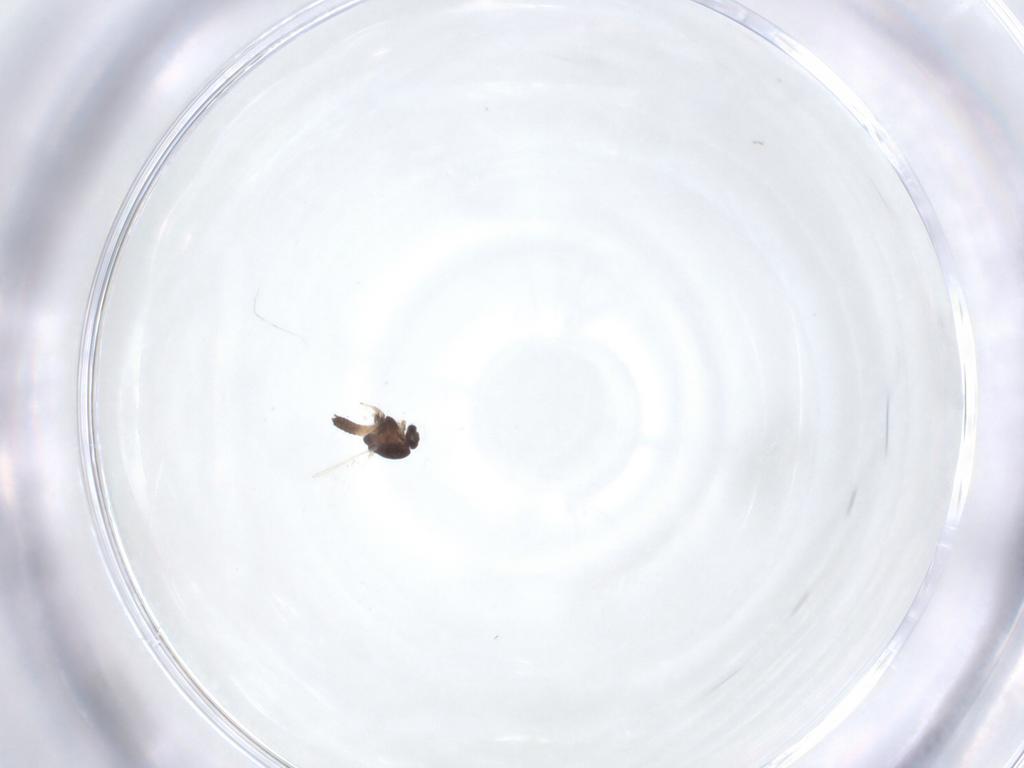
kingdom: Animalia
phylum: Arthropoda
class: Insecta
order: Diptera
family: Chironomidae
